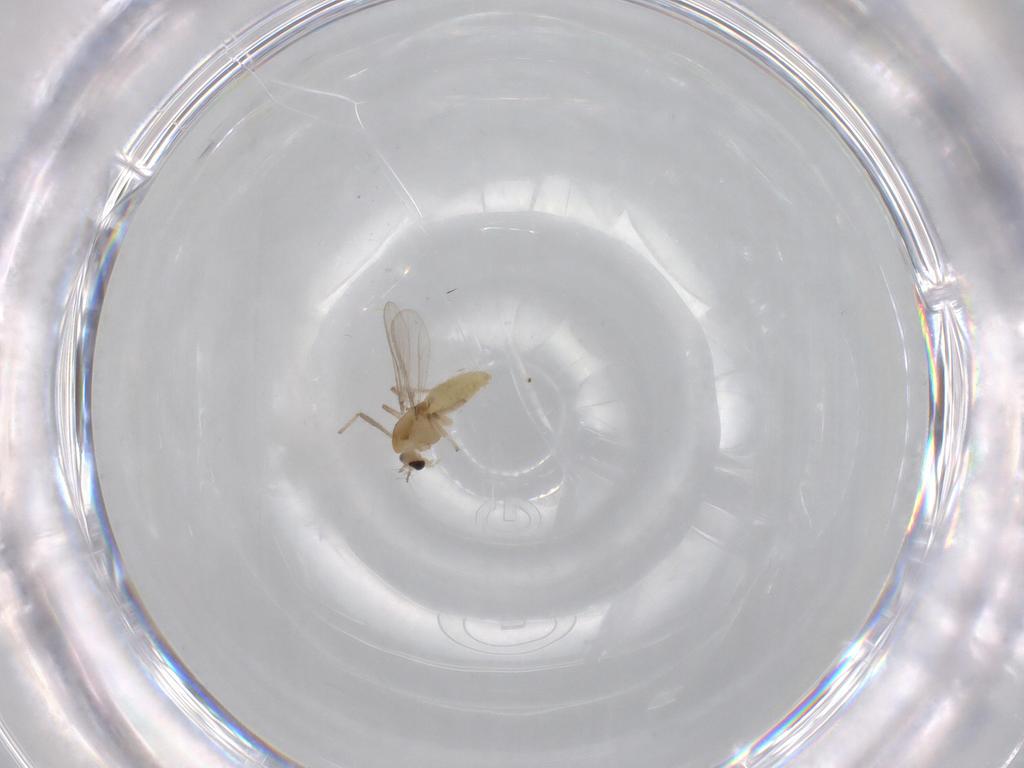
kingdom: Animalia
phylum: Arthropoda
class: Insecta
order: Diptera
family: Chironomidae
